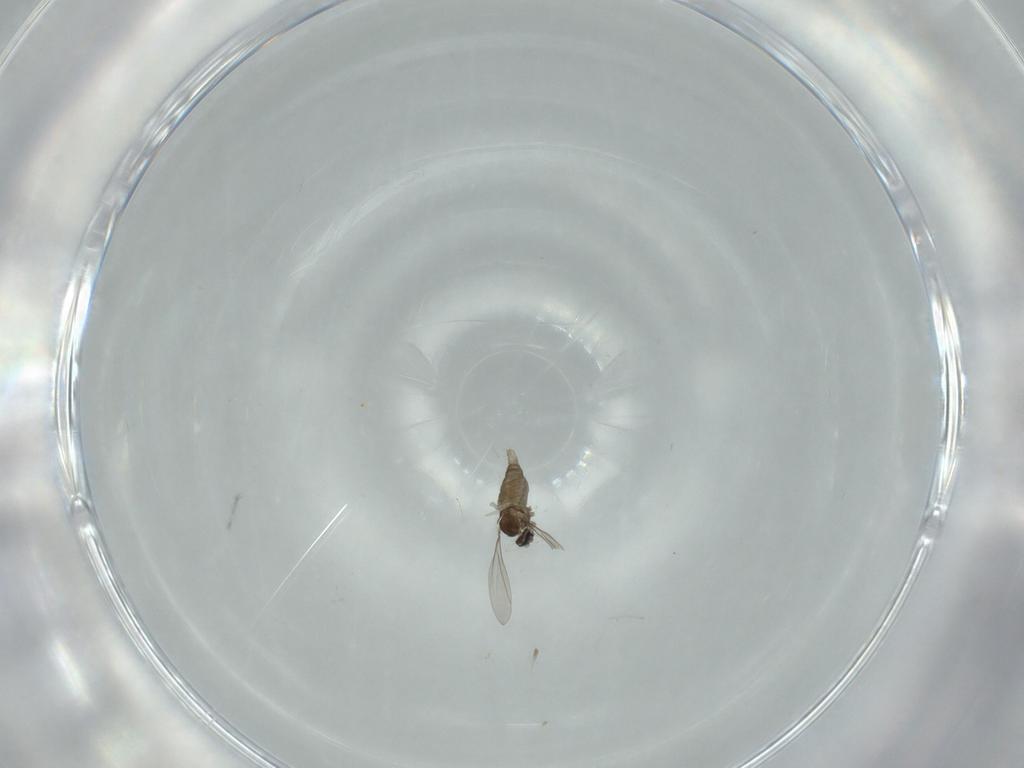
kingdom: Animalia
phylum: Arthropoda
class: Insecta
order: Diptera
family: Cecidomyiidae
